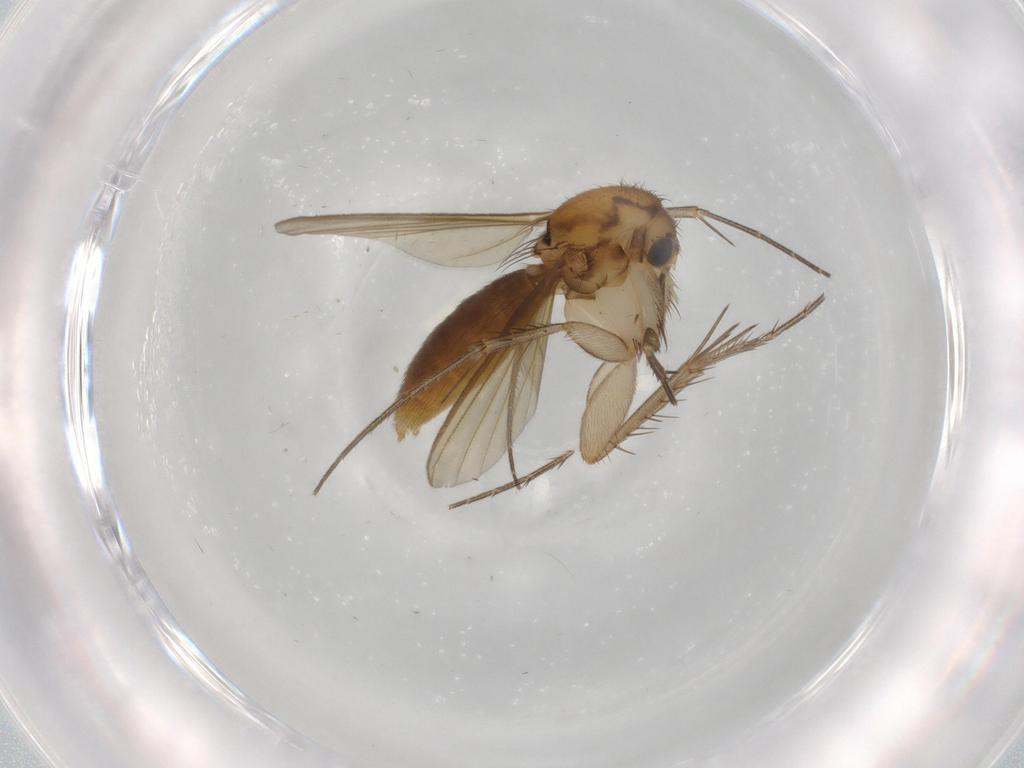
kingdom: Animalia
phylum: Arthropoda
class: Insecta
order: Diptera
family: Mycetophilidae
